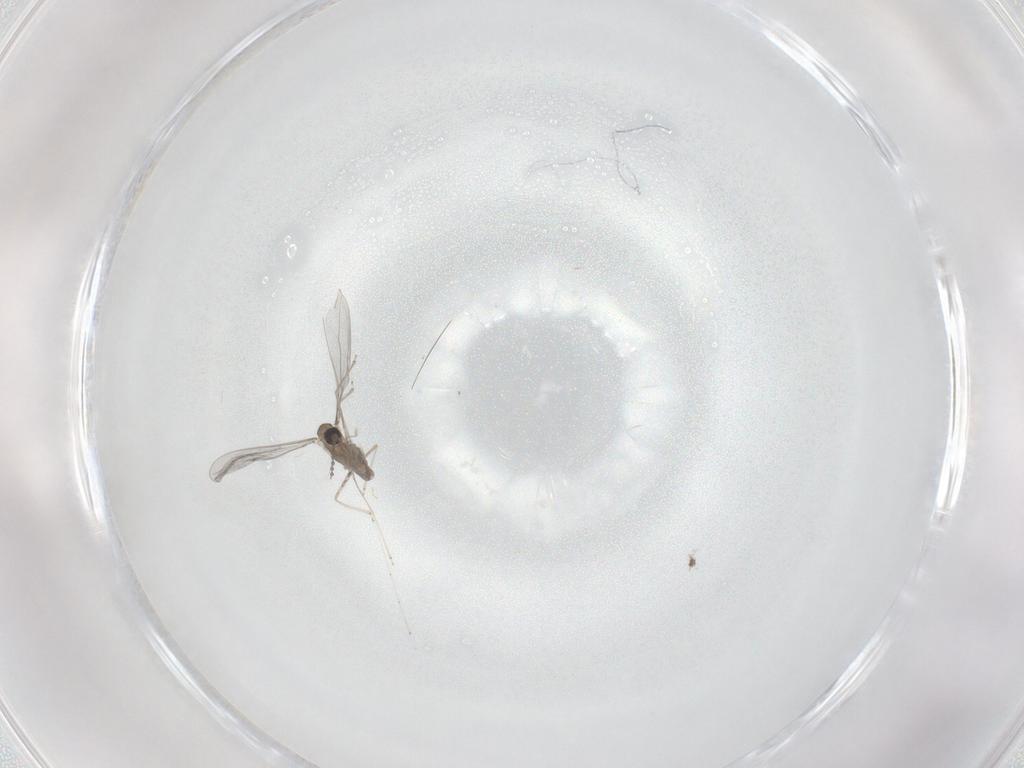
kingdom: Animalia
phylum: Arthropoda
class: Insecta
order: Diptera
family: Cecidomyiidae
